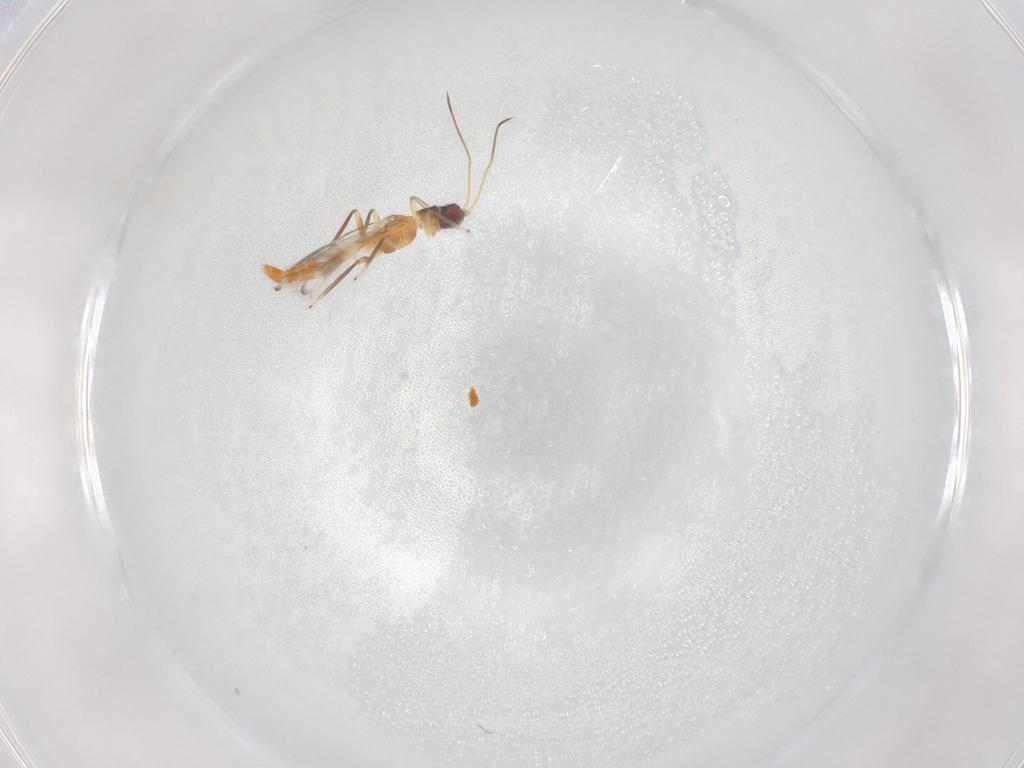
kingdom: Animalia
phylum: Arthropoda
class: Insecta
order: Thysanoptera
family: Aeolothripidae
